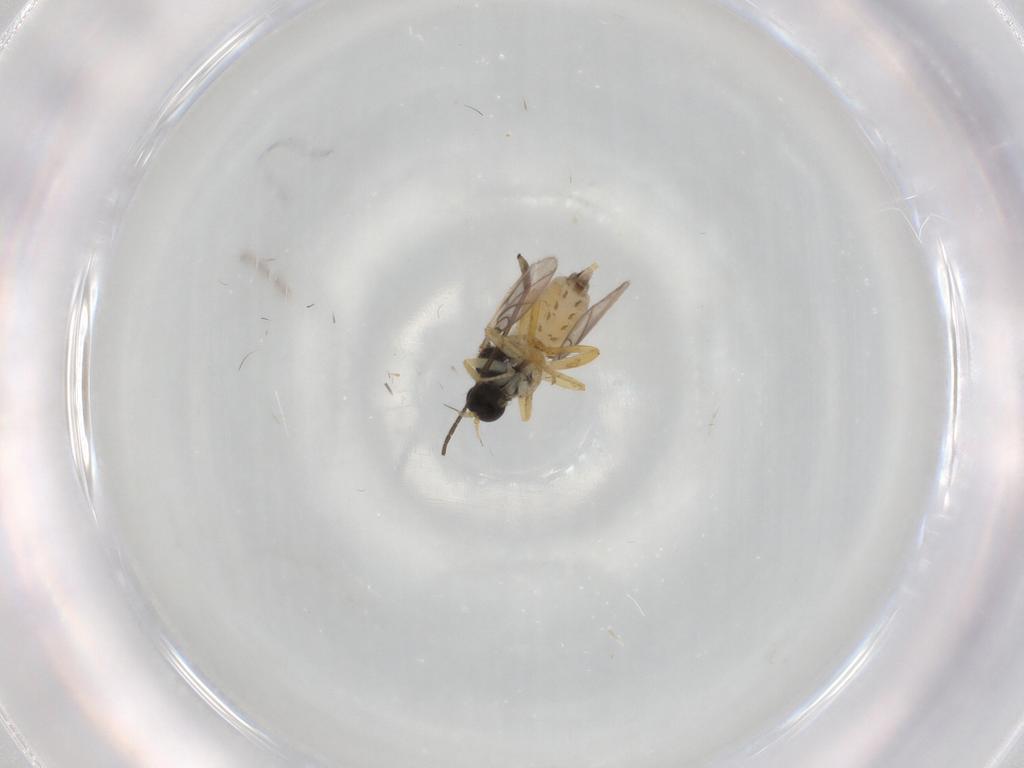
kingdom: Animalia
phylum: Arthropoda
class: Insecta
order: Diptera
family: Hybotidae
